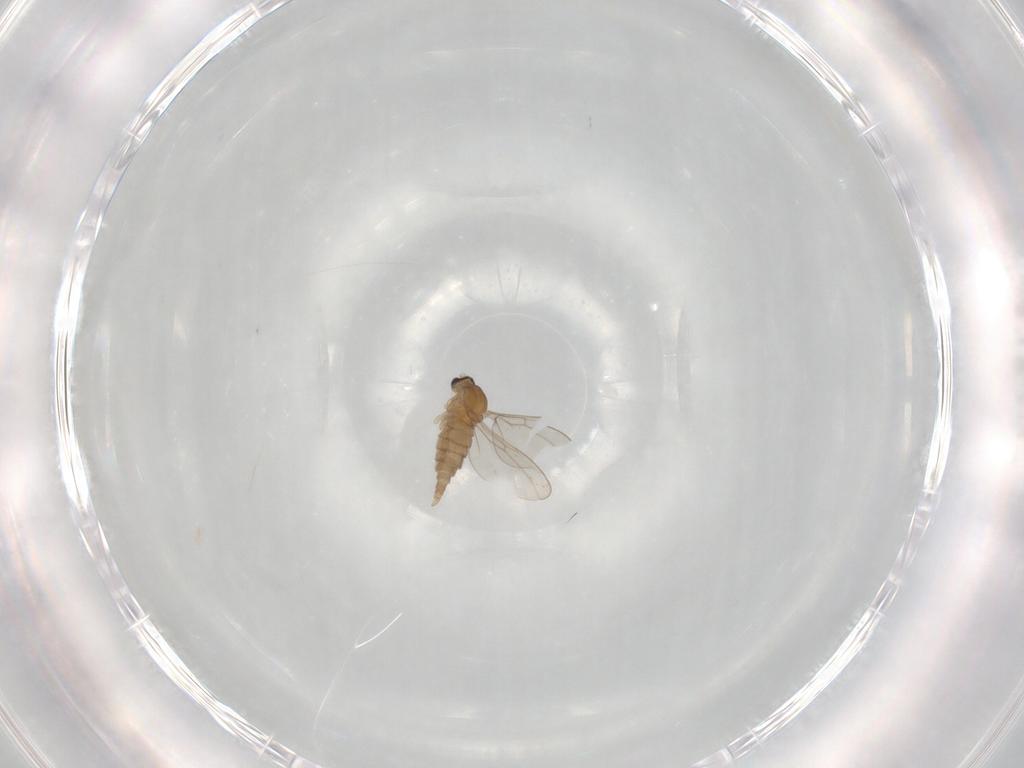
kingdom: Animalia
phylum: Arthropoda
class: Insecta
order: Diptera
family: Cecidomyiidae
